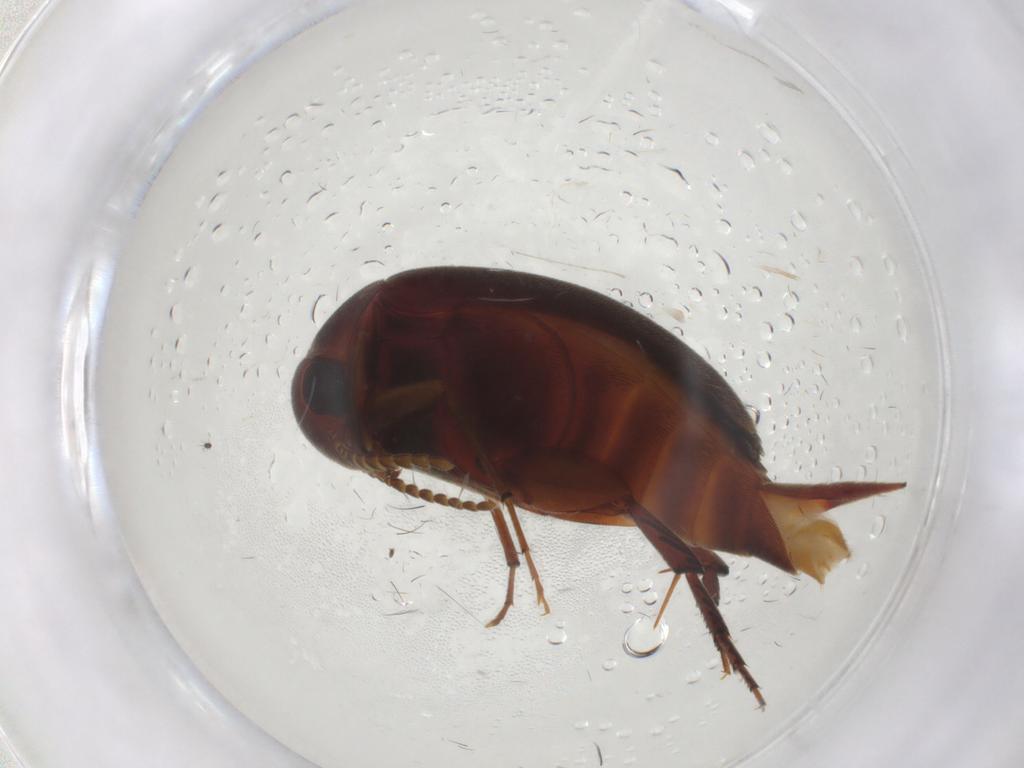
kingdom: Animalia
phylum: Arthropoda
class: Insecta
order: Coleoptera
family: Mordellidae
